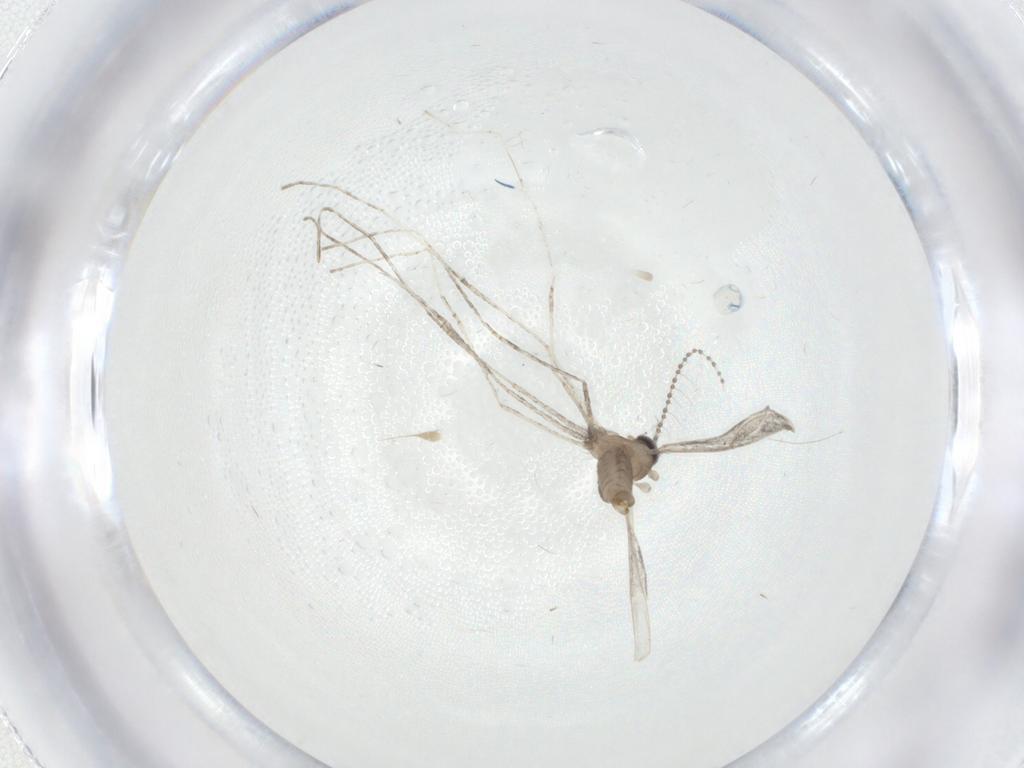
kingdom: Animalia
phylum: Arthropoda
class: Insecta
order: Diptera
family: Cecidomyiidae
